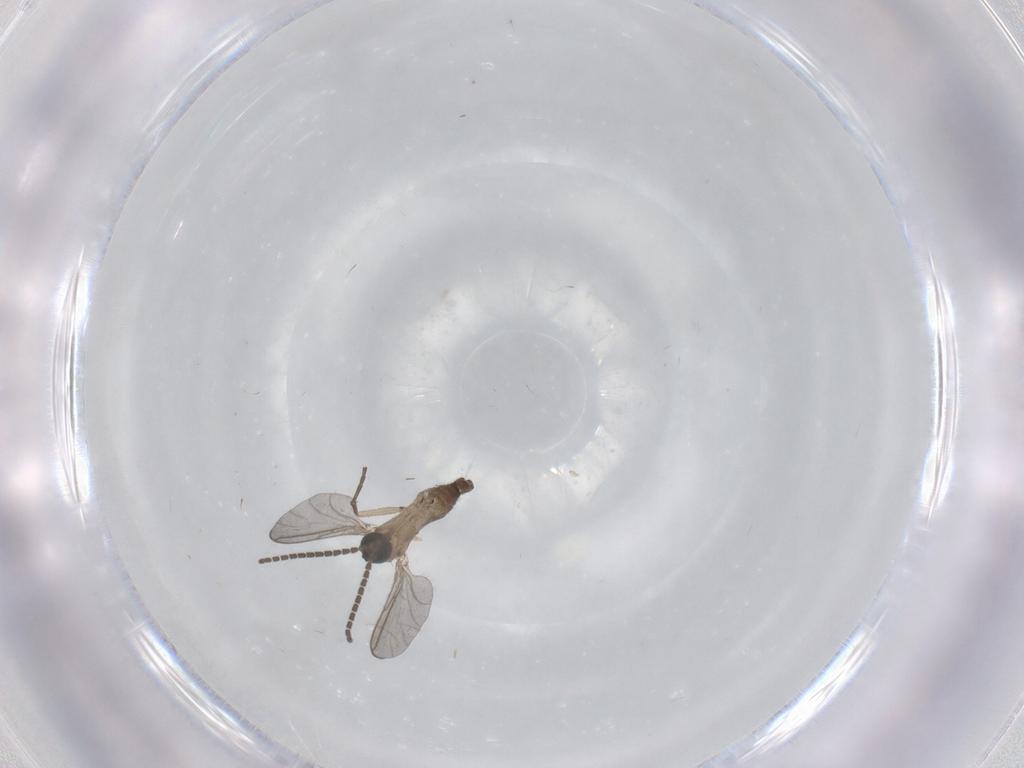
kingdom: Animalia
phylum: Arthropoda
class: Insecta
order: Diptera
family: Sciaridae
